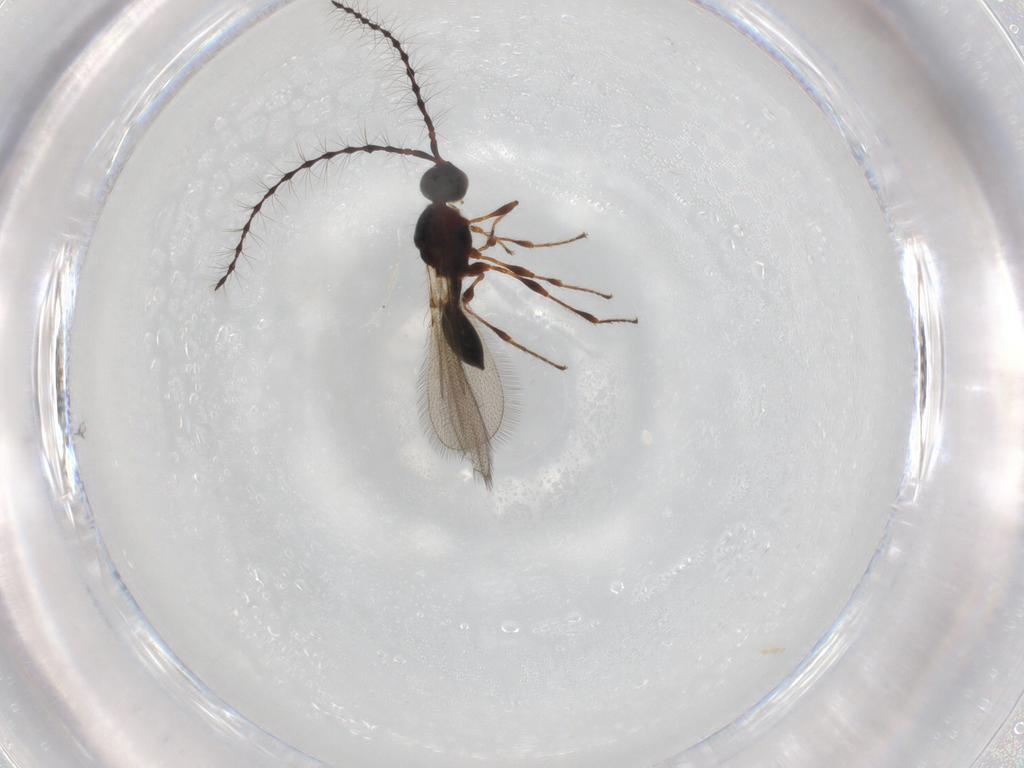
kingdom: Animalia
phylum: Arthropoda
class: Insecta
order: Hymenoptera
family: Diapriidae
